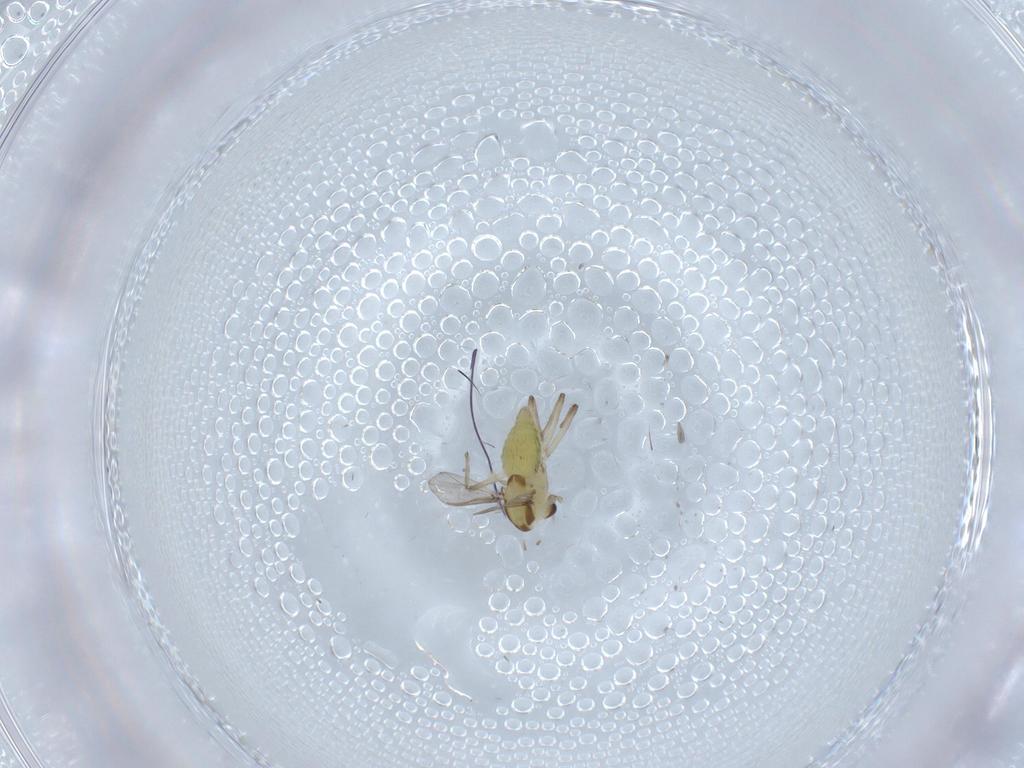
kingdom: Animalia
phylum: Arthropoda
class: Insecta
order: Diptera
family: Chironomidae
